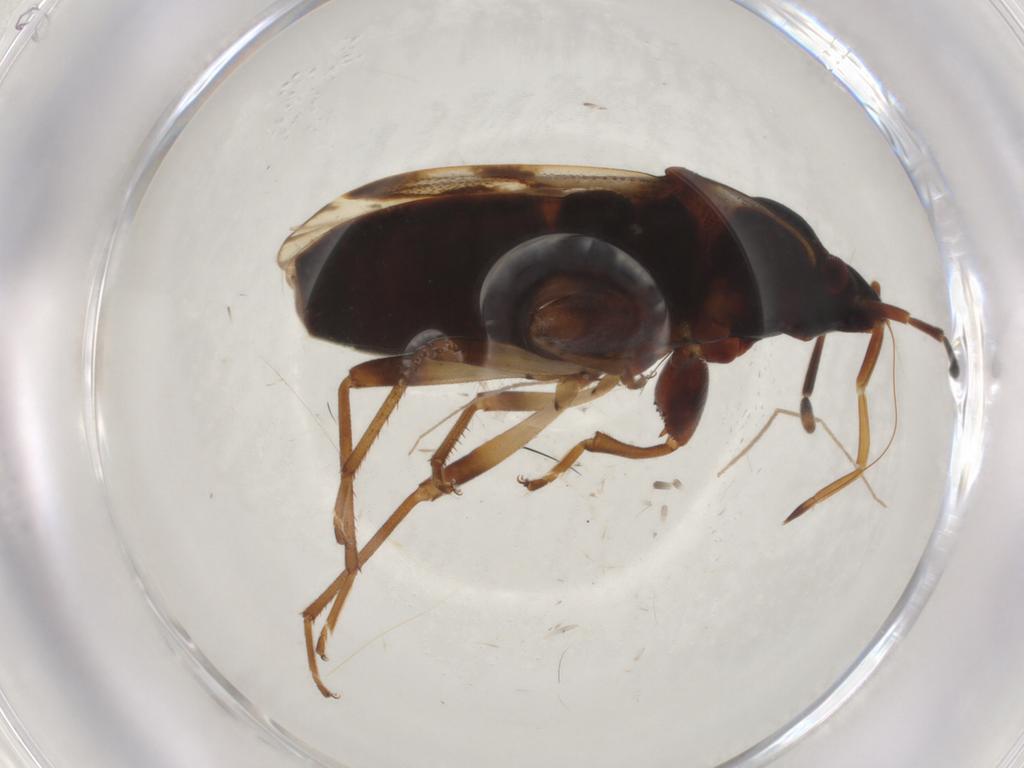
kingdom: Animalia
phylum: Arthropoda
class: Insecta
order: Hemiptera
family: Rhyparochromidae
